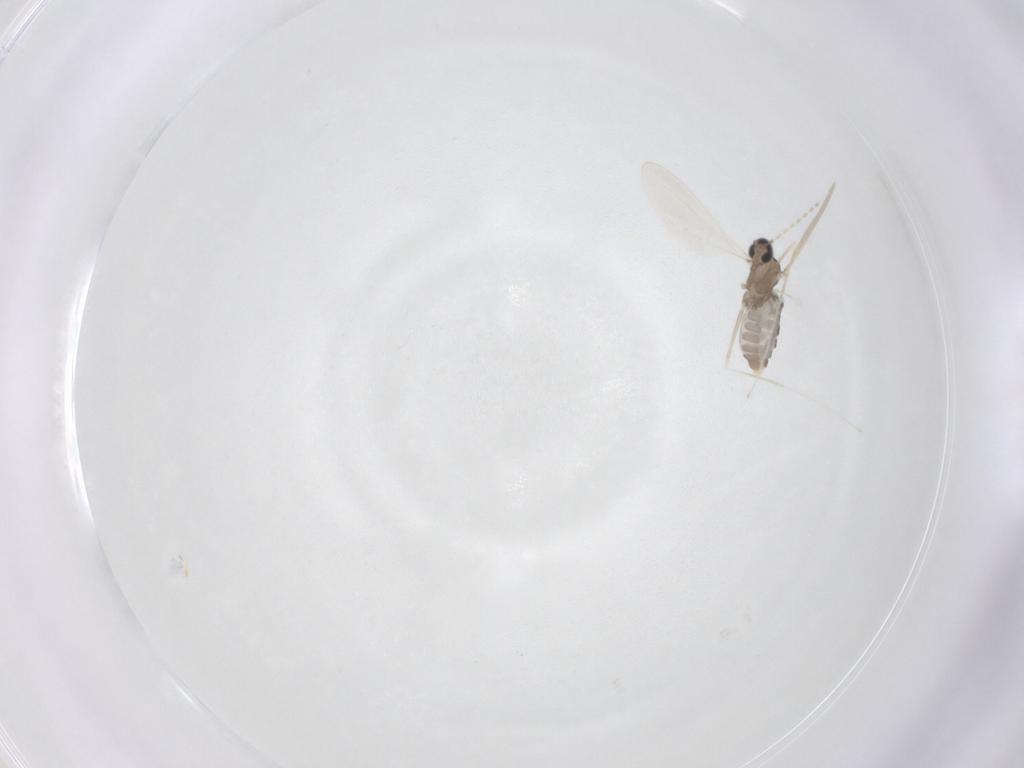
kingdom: Animalia
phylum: Arthropoda
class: Insecta
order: Diptera
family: Cecidomyiidae
